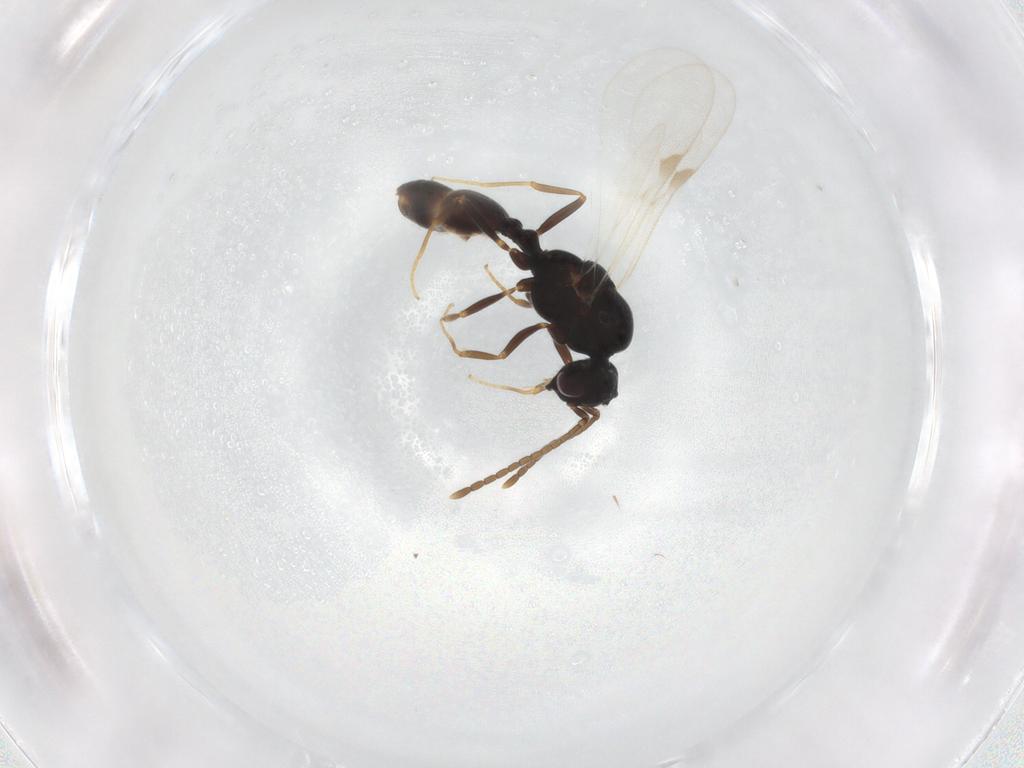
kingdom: Animalia
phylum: Arthropoda
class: Insecta
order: Hymenoptera
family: Formicidae
